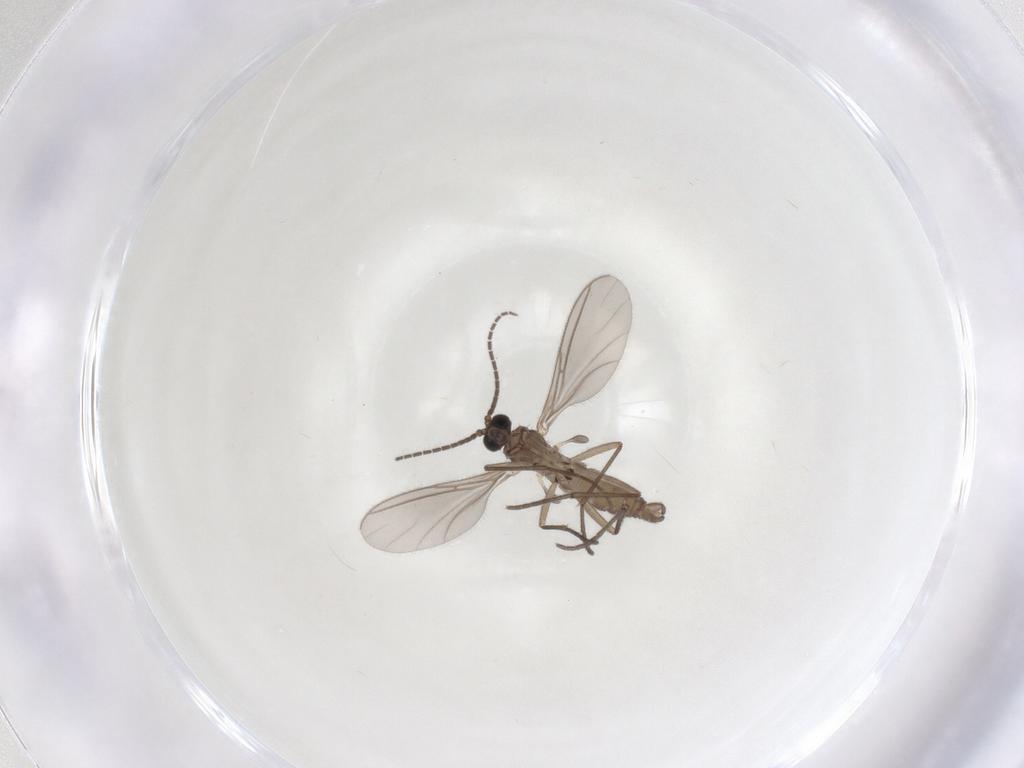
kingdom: Animalia
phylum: Arthropoda
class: Insecta
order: Diptera
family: Sciaridae
